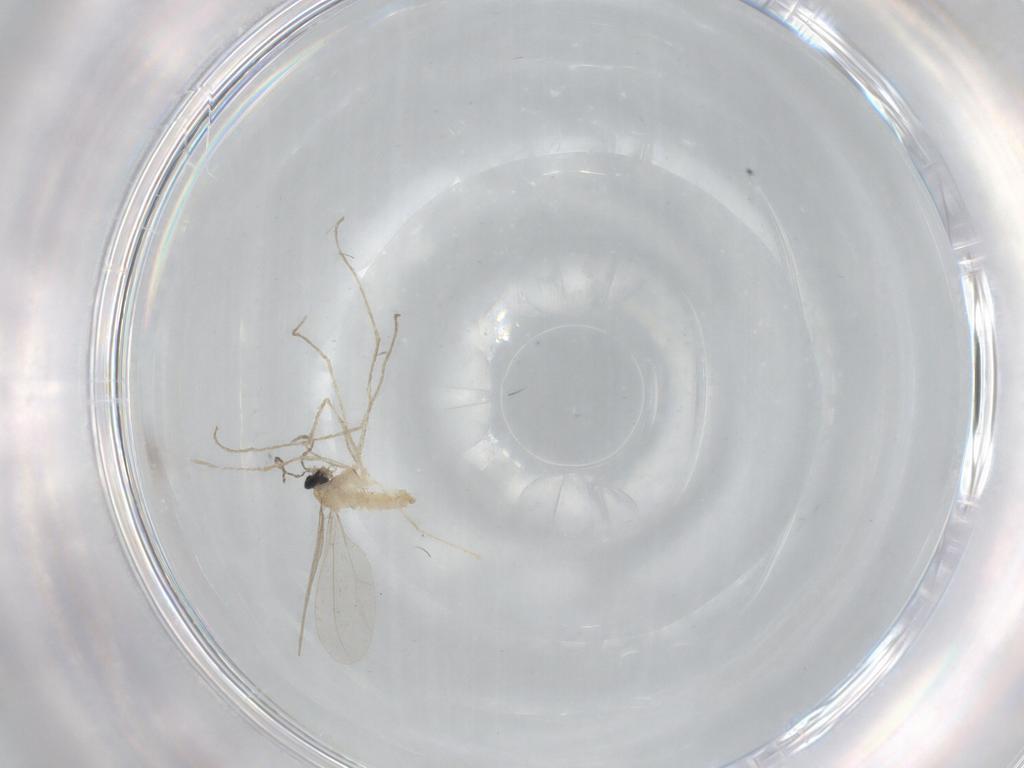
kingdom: Animalia
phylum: Arthropoda
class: Insecta
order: Diptera
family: Cecidomyiidae
